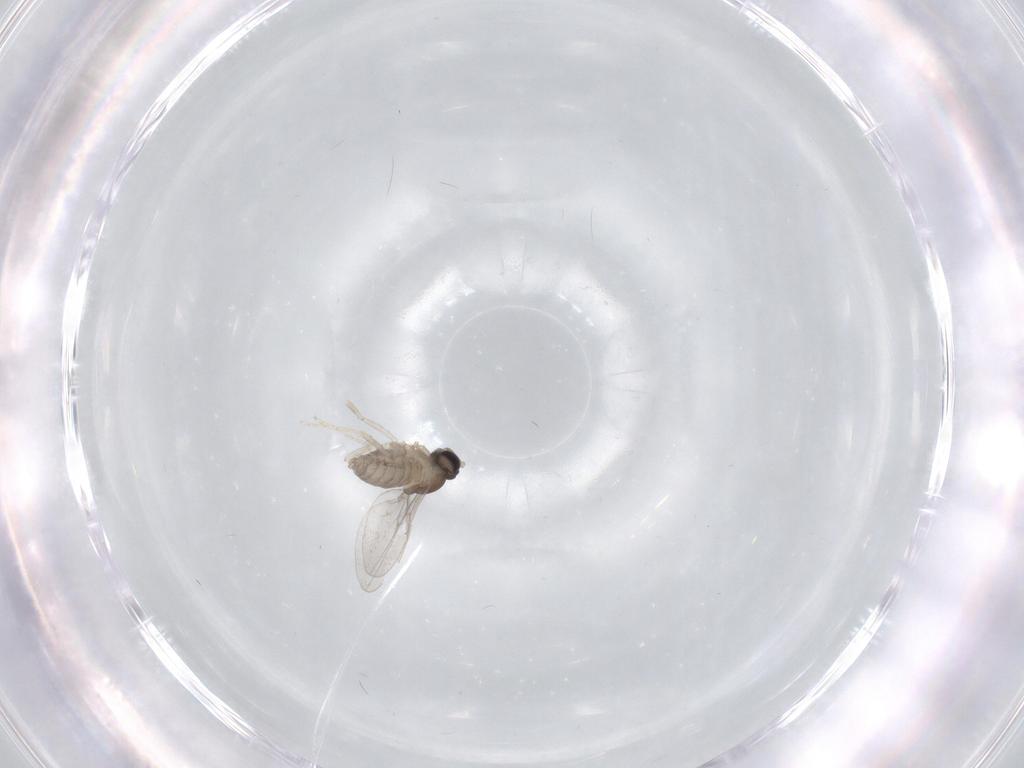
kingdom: Animalia
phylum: Arthropoda
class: Insecta
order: Diptera
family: Cecidomyiidae
